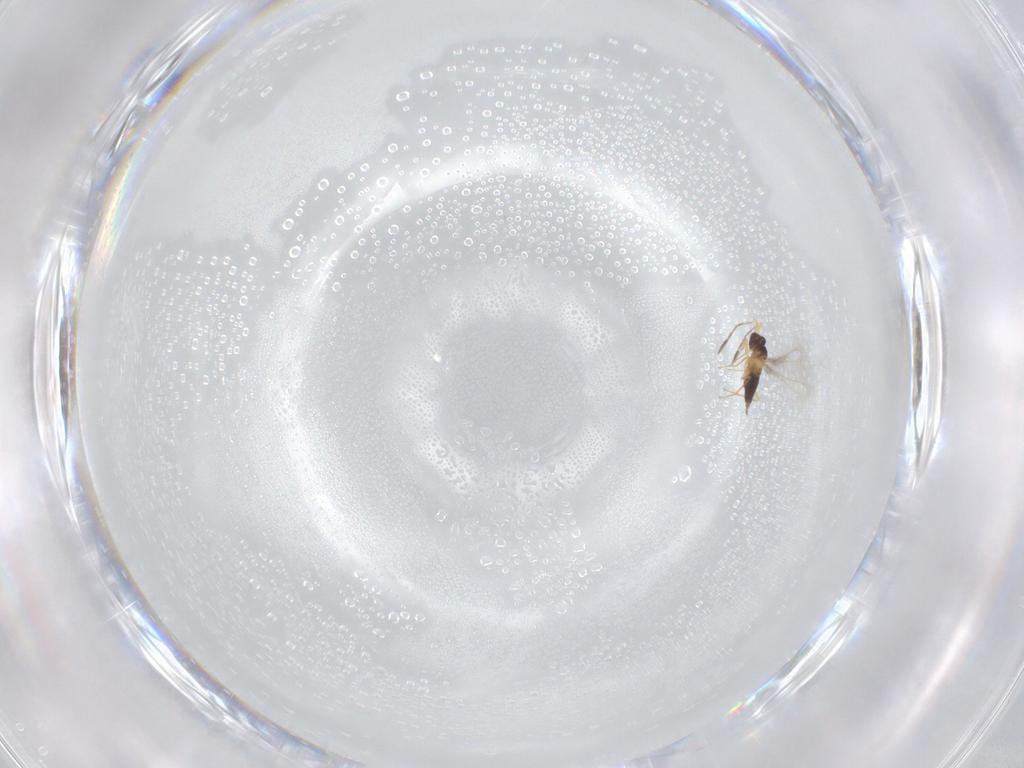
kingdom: Animalia
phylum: Arthropoda
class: Insecta
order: Hymenoptera
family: Mymaridae
